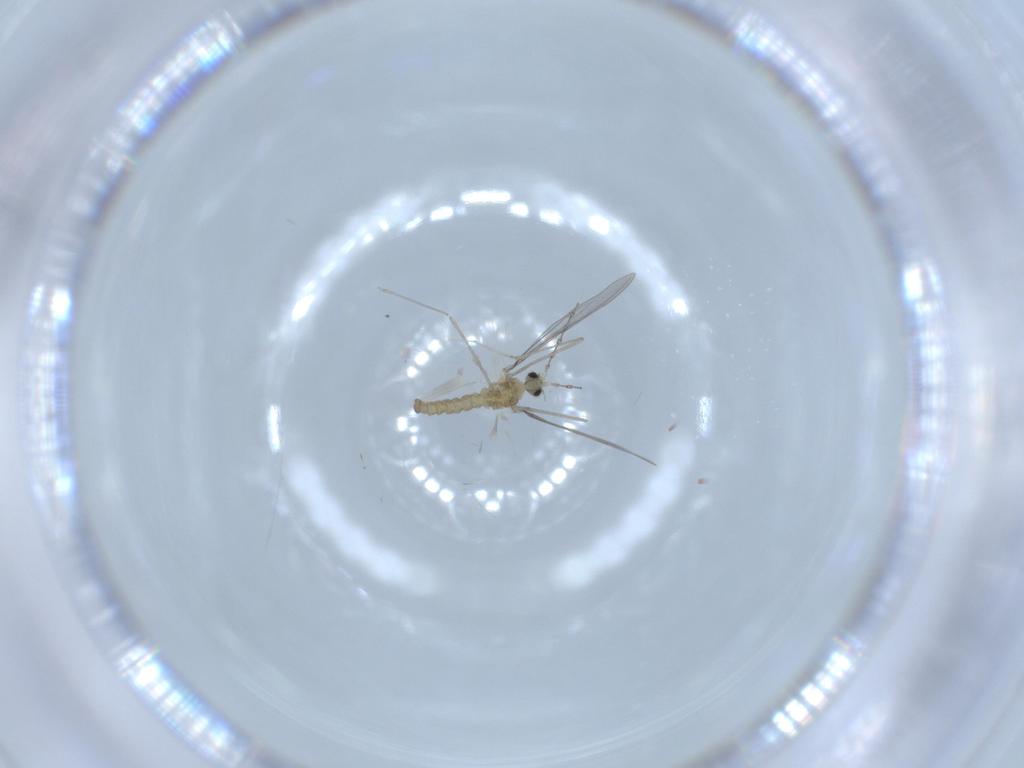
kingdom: Animalia
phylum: Arthropoda
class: Insecta
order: Diptera
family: Cecidomyiidae
